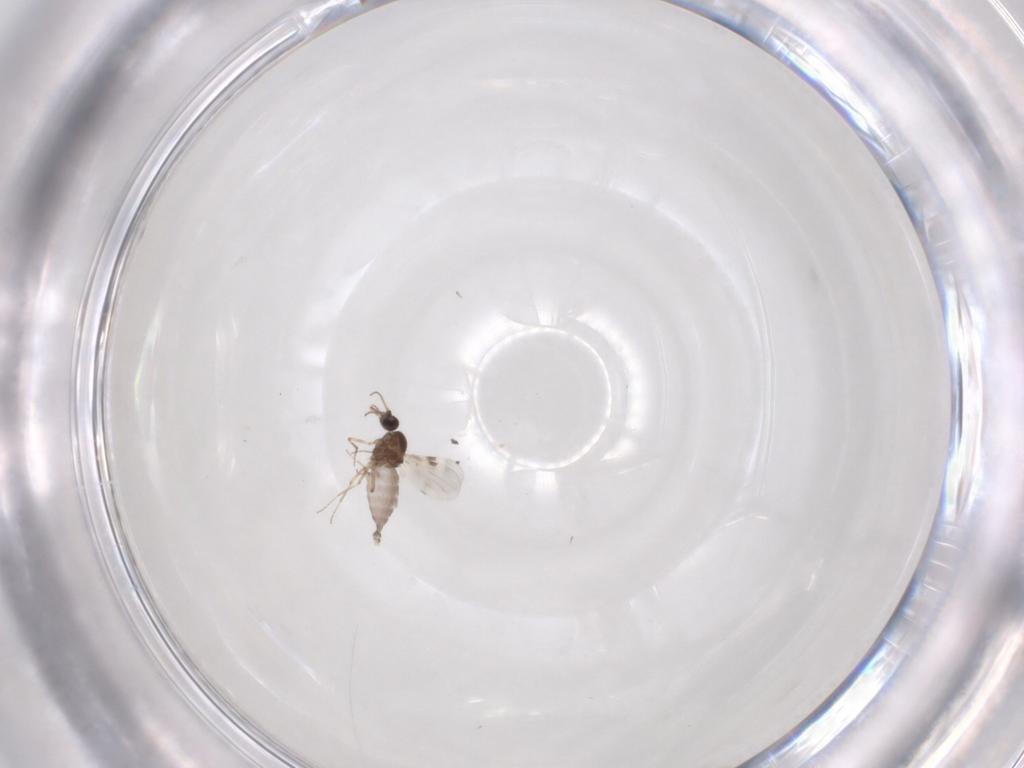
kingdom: Animalia
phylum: Arthropoda
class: Insecta
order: Diptera
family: Cecidomyiidae
